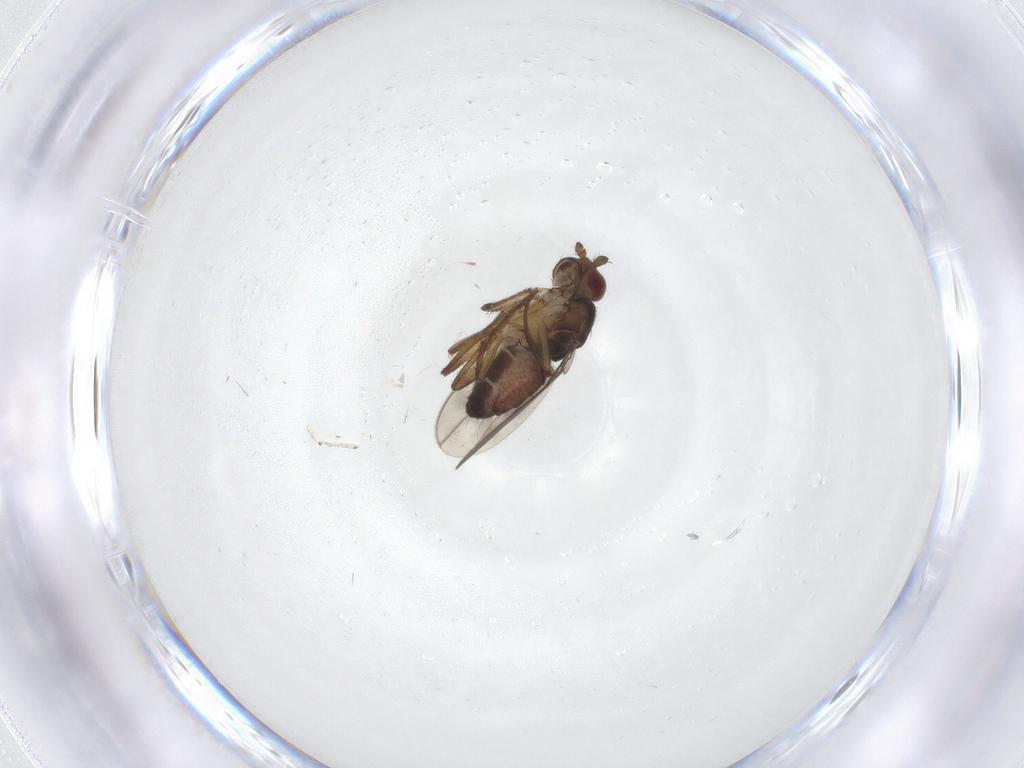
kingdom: Animalia
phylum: Arthropoda
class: Insecta
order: Diptera
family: Sphaeroceridae
